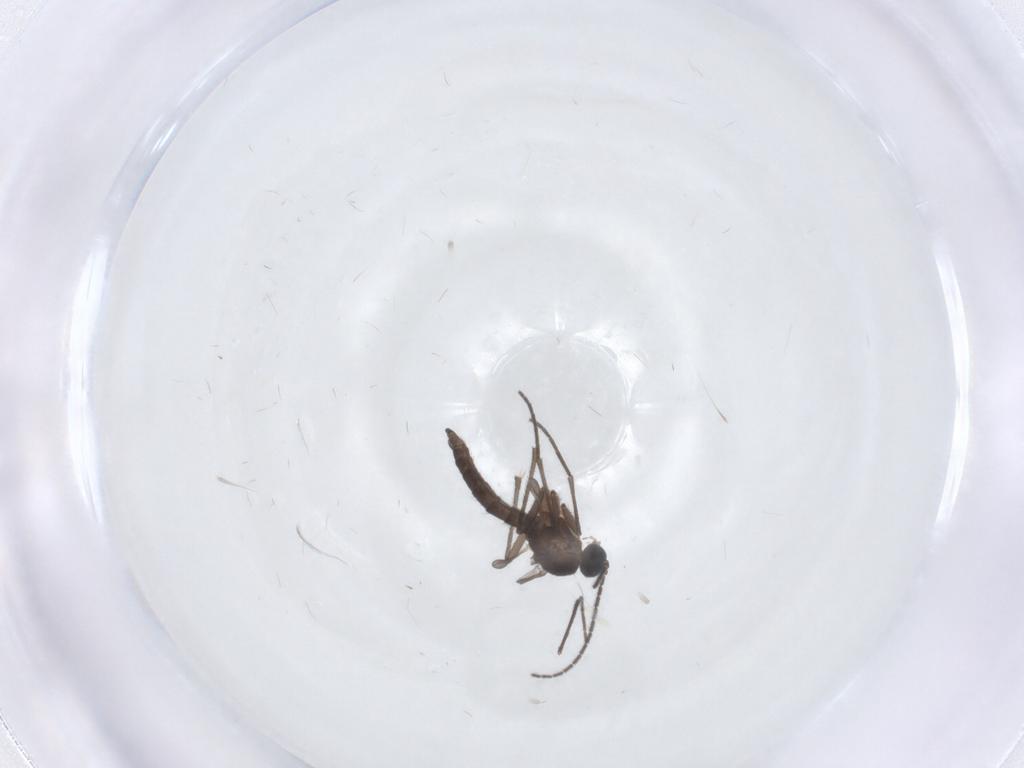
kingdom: Animalia
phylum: Arthropoda
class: Insecta
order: Diptera
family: Sciaridae
